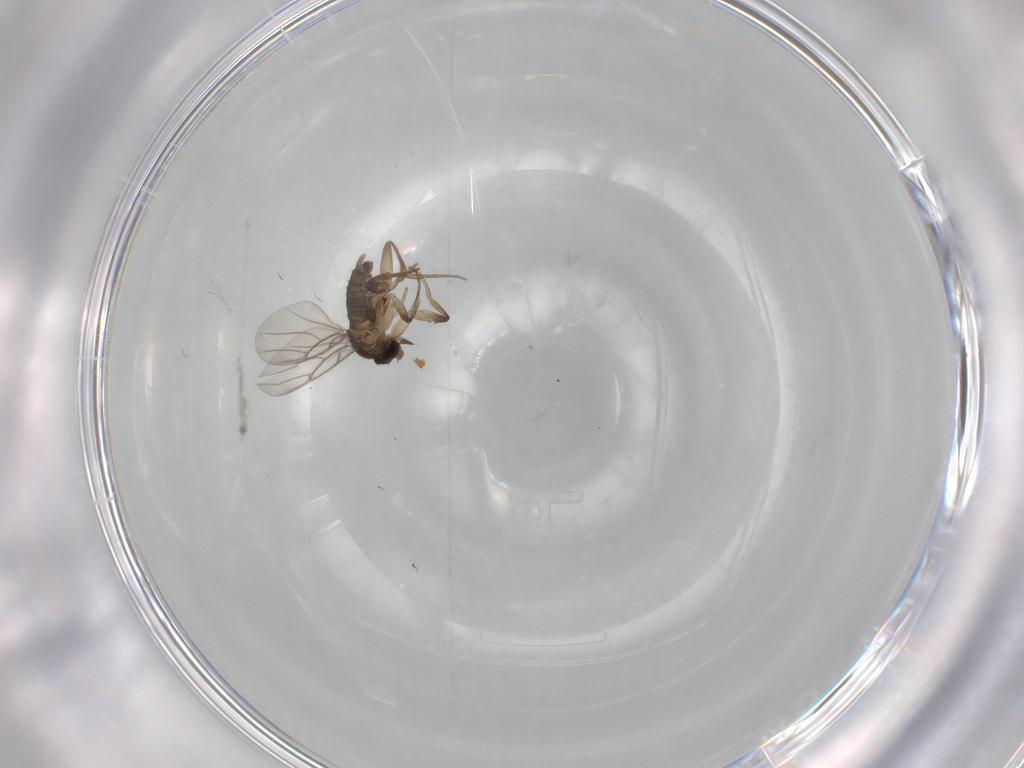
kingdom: Animalia
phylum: Arthropoda
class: Insecta
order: Diptera
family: Phoridae
